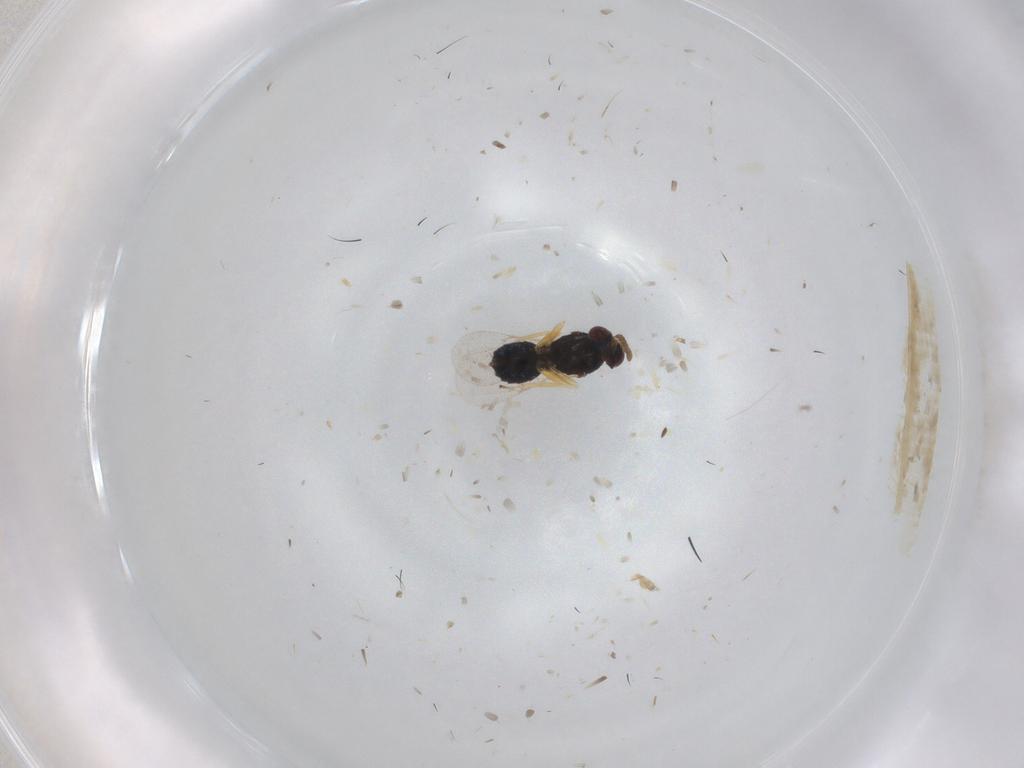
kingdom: Animalia
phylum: Arthropoda
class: Insecta
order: Hymenoptera
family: Eulophidae
